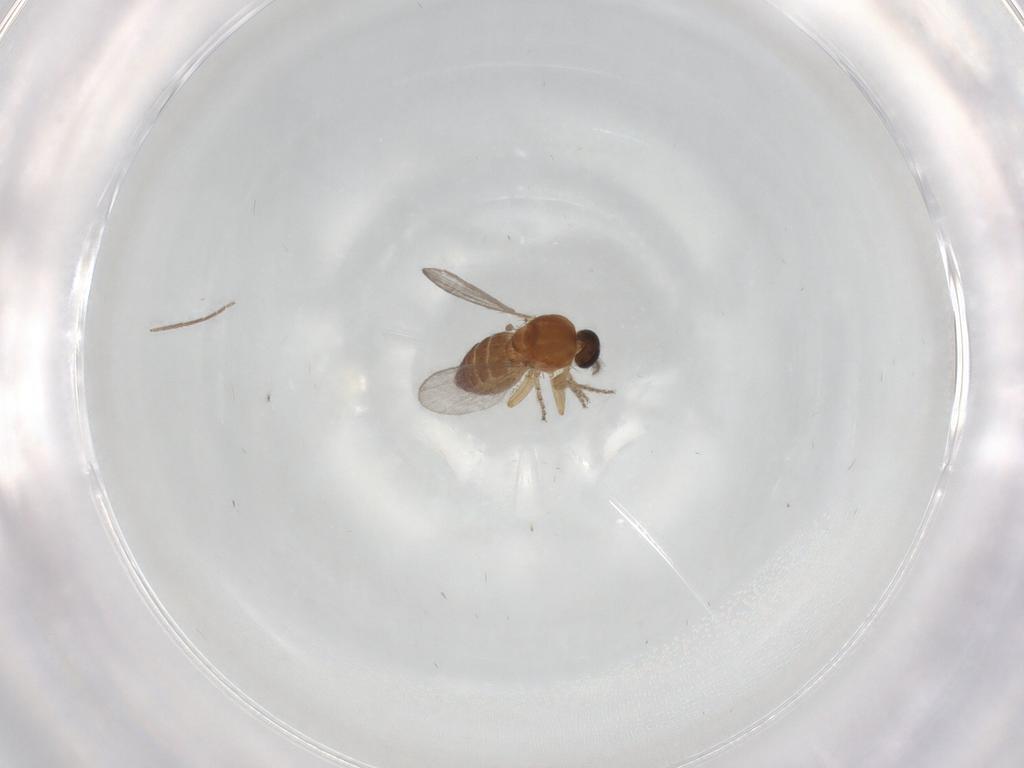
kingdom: Animalia
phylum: Arthropoda
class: Insecta
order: Diptera
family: Ceratopogonidae
